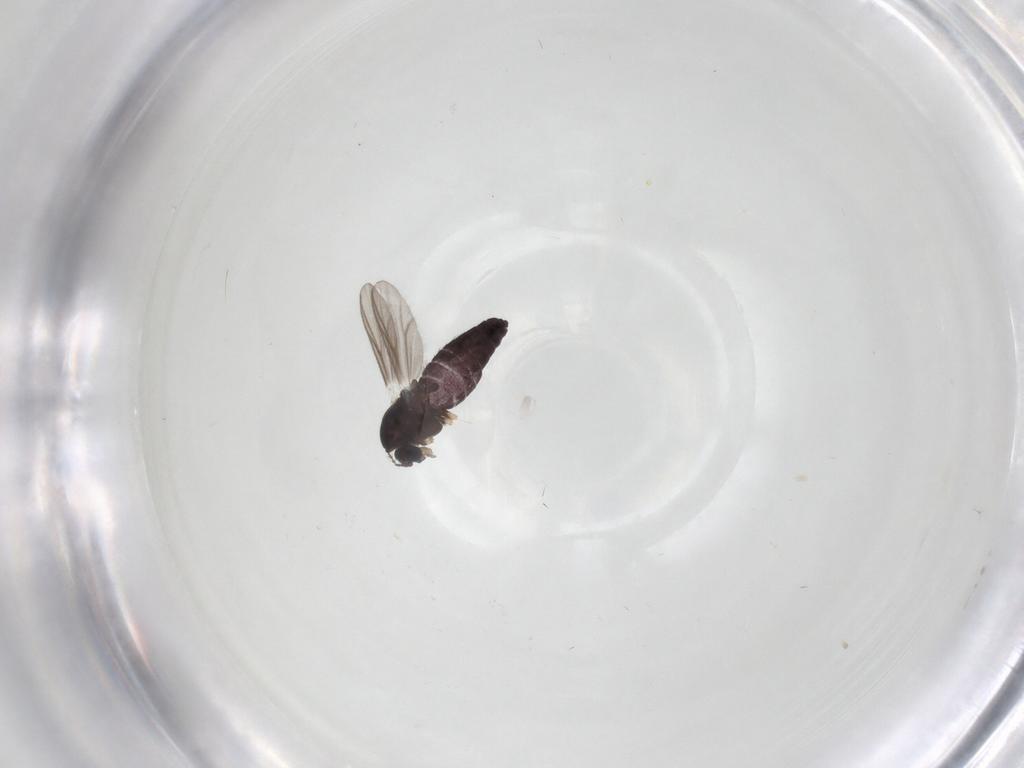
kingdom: Animalia
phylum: Arthropoda
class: Insecta
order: Diptera
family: Chironomidae
